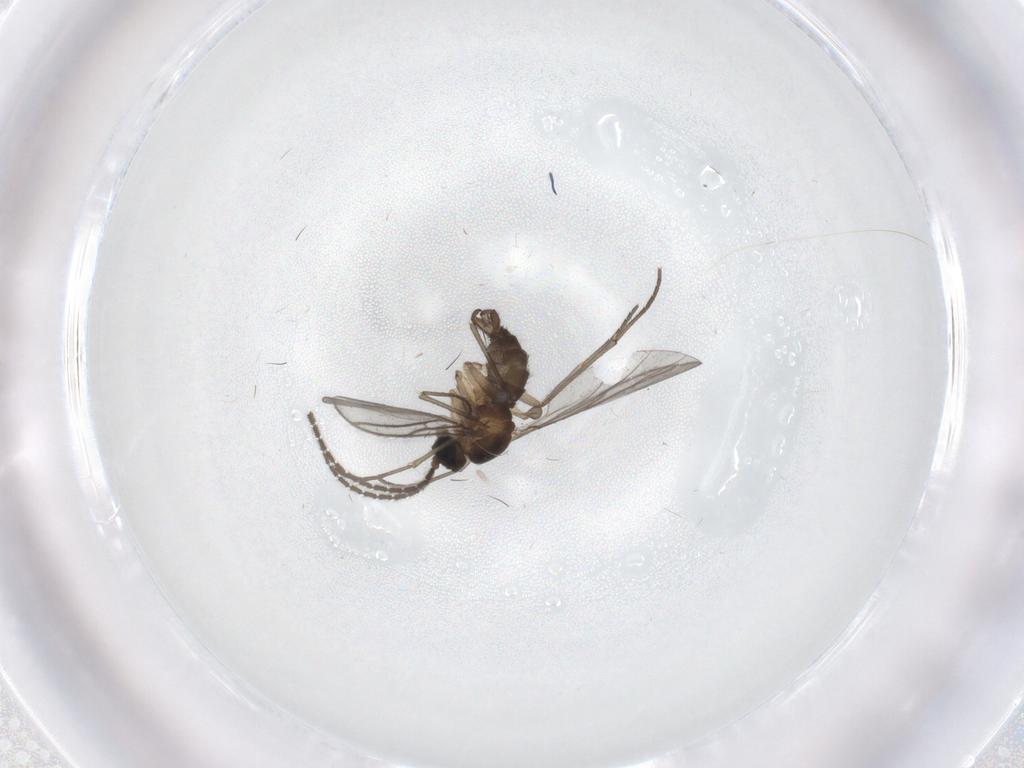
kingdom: Animalia
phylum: Arthropoda
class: Insecta
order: Diptera
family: Cecidomyiidae
